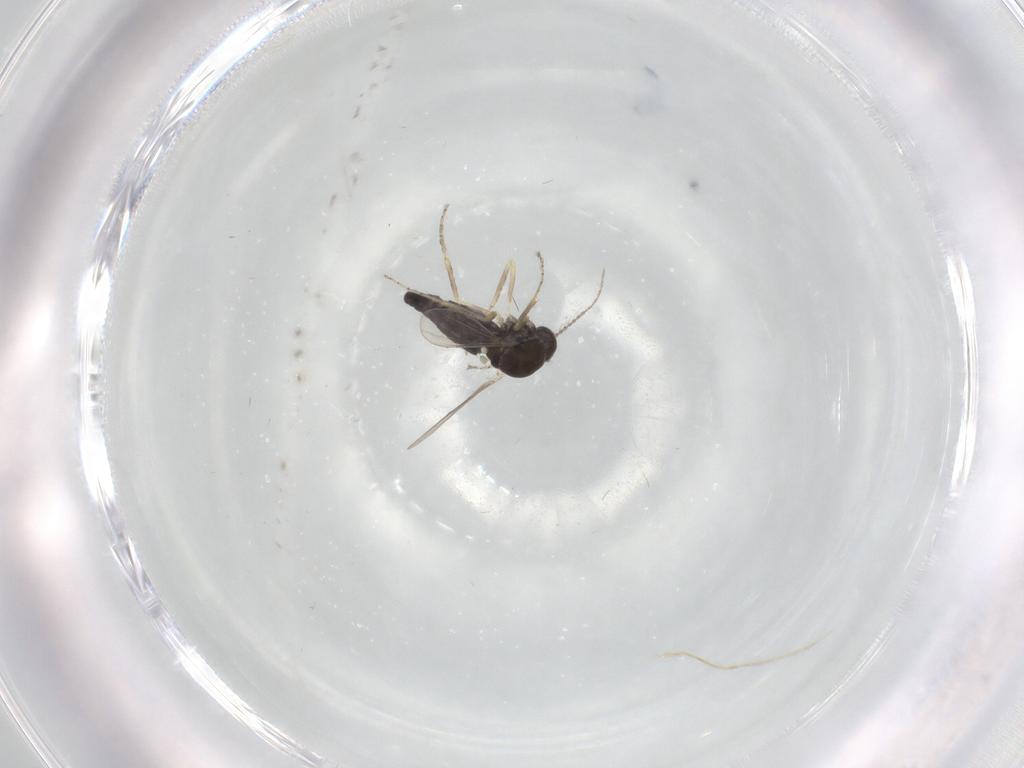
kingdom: Animalia
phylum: Arthropoda
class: Insecta
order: Diptera
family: Ceratopogonidae
